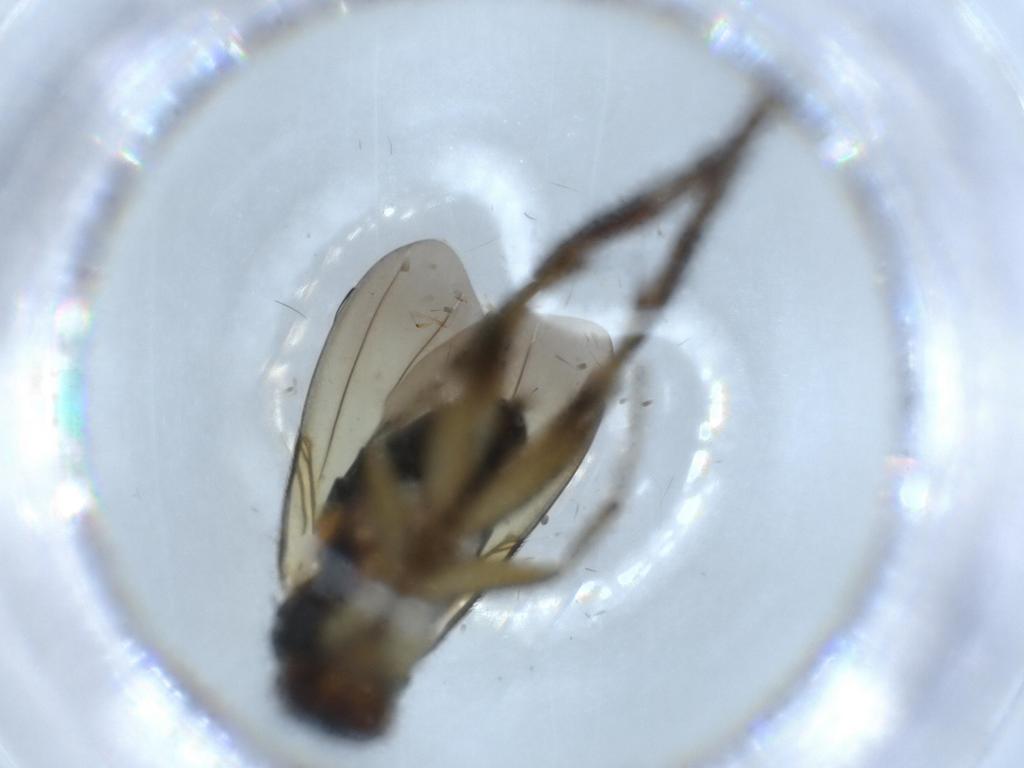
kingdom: Animalia
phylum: Arthropoda
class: Insecta
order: Diptera
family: Phoridae
